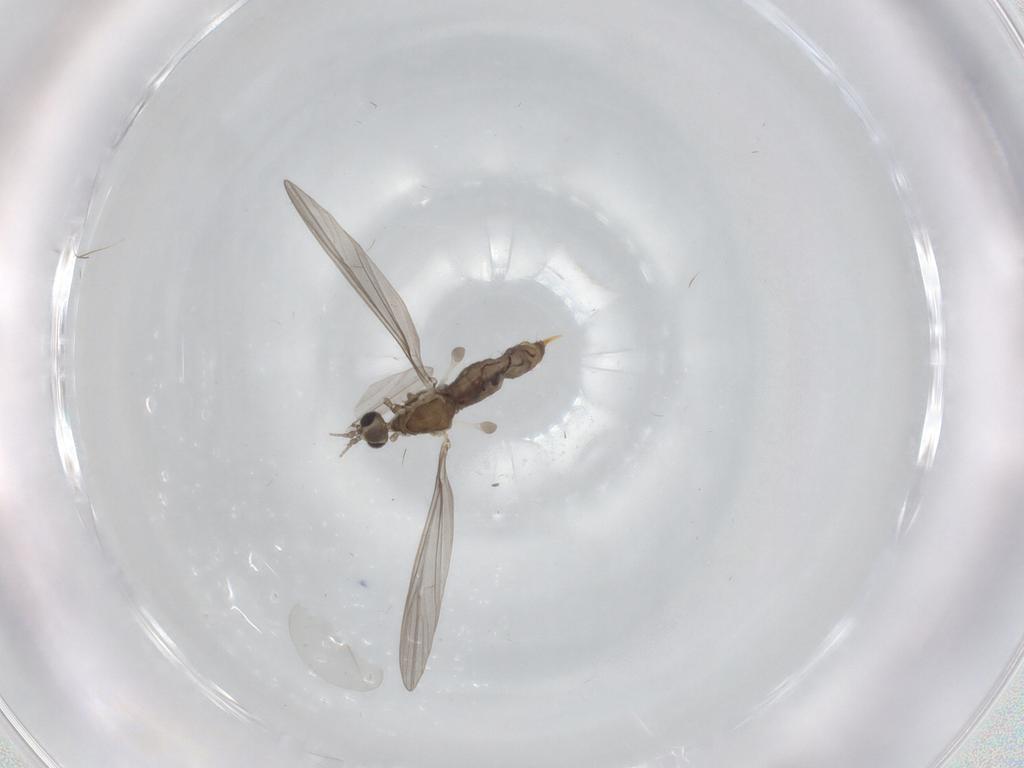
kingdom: Animalia
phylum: Arthropoda
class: Insecta
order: Diptera
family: Limoniidae
